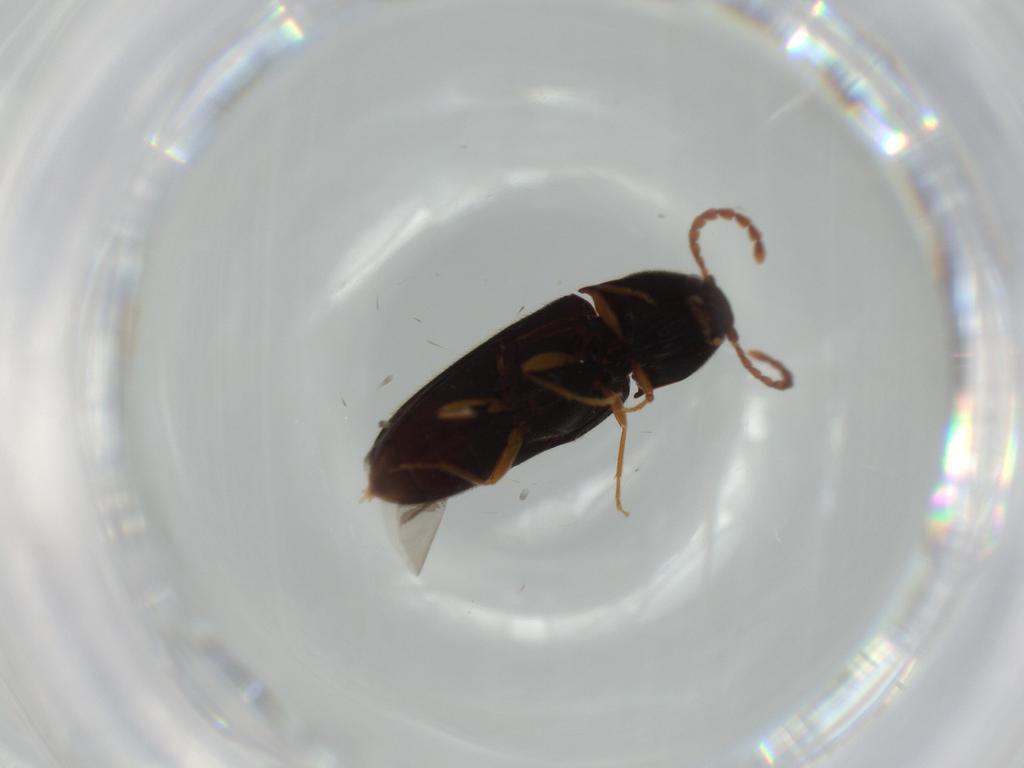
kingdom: Animalia
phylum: Arthropoda
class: Insecta
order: Coleoptera
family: Elateridae
